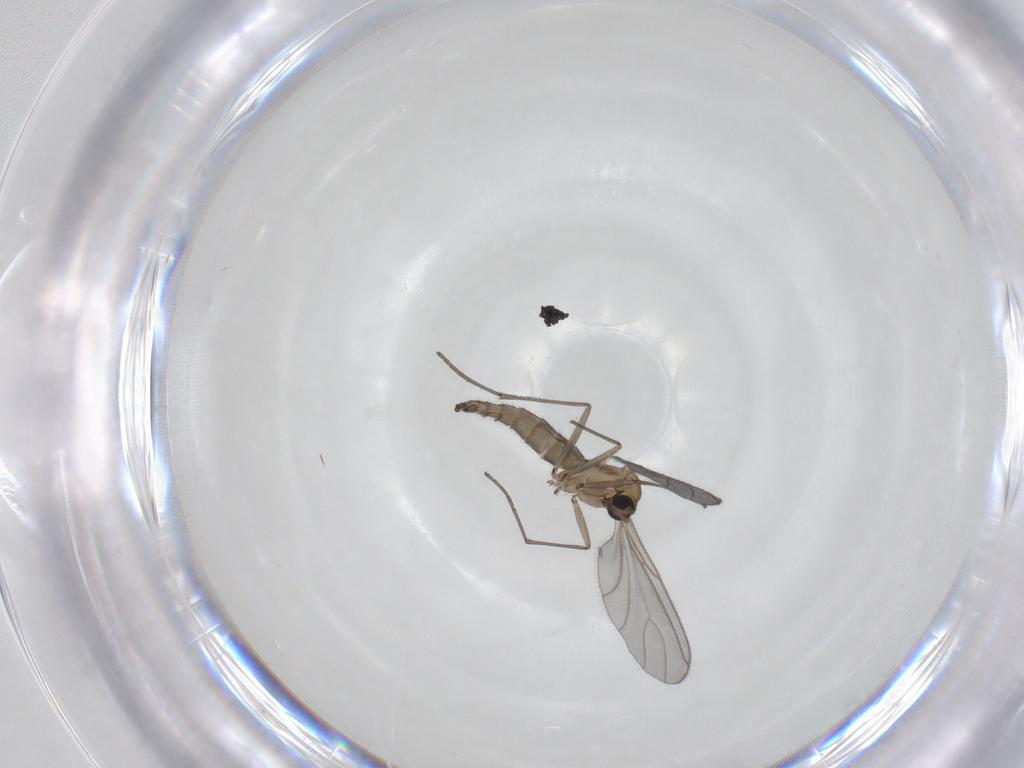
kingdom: Animalia
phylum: Arthropoda
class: Insecta
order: Diptera
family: Sciaridae
